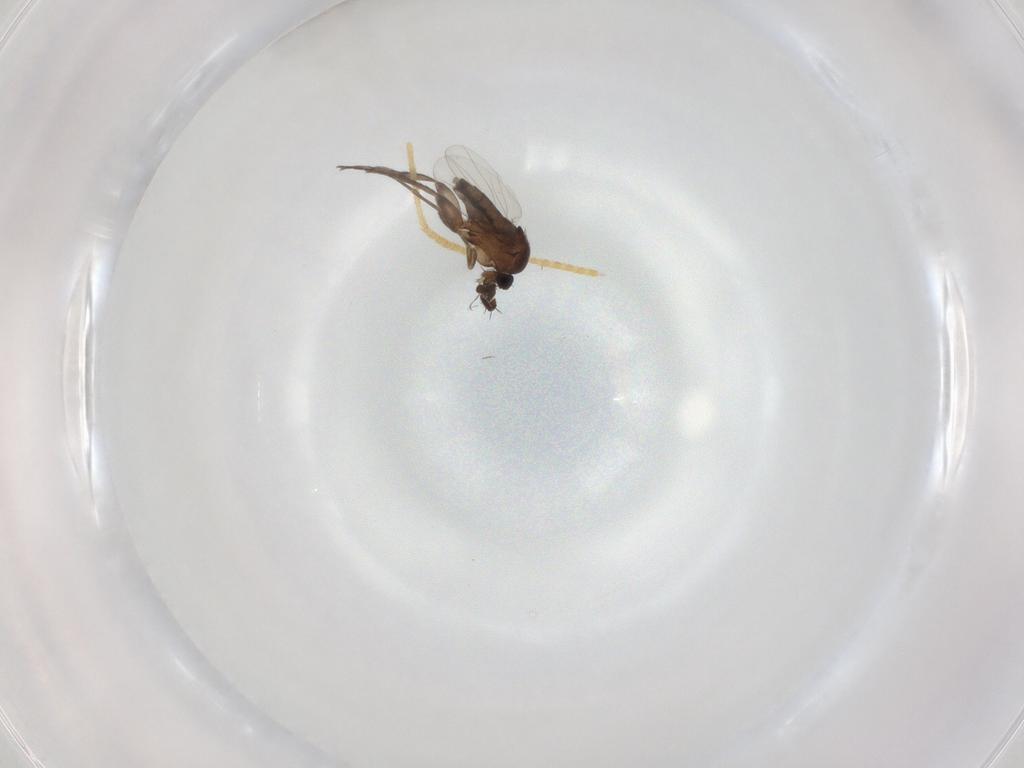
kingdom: Animalia
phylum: Arthropoda
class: Insecta
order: Diptera
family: Phoridae
